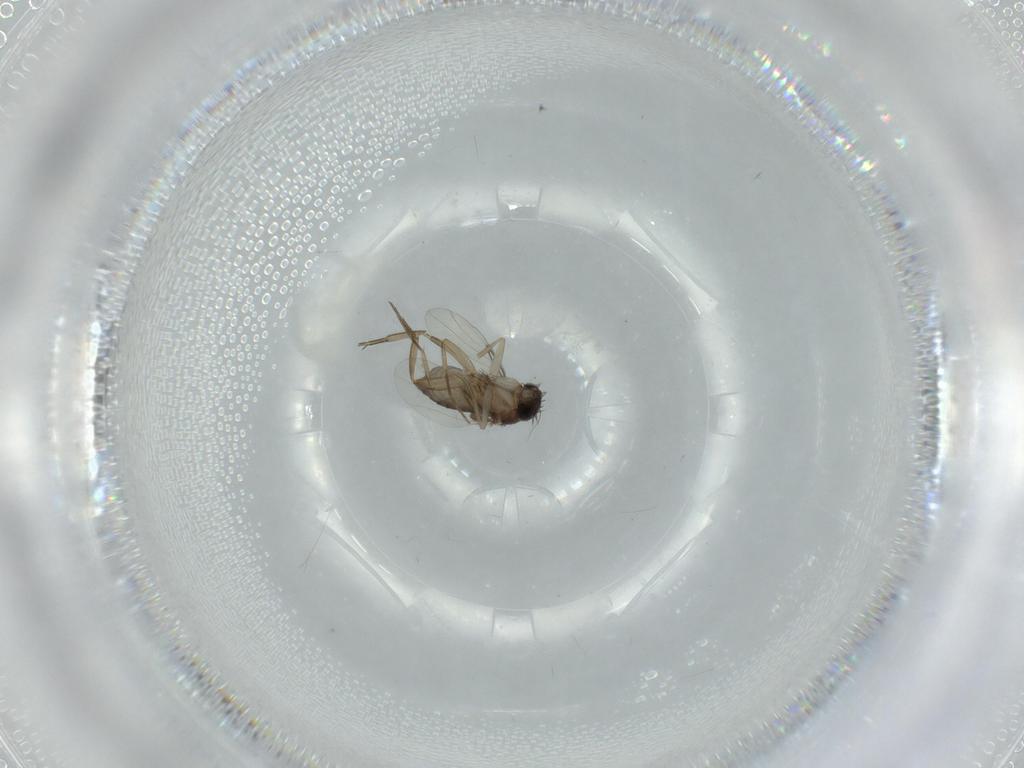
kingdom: Animalia
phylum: Arthropoda
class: Insecta
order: Diptera
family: Phoridae
